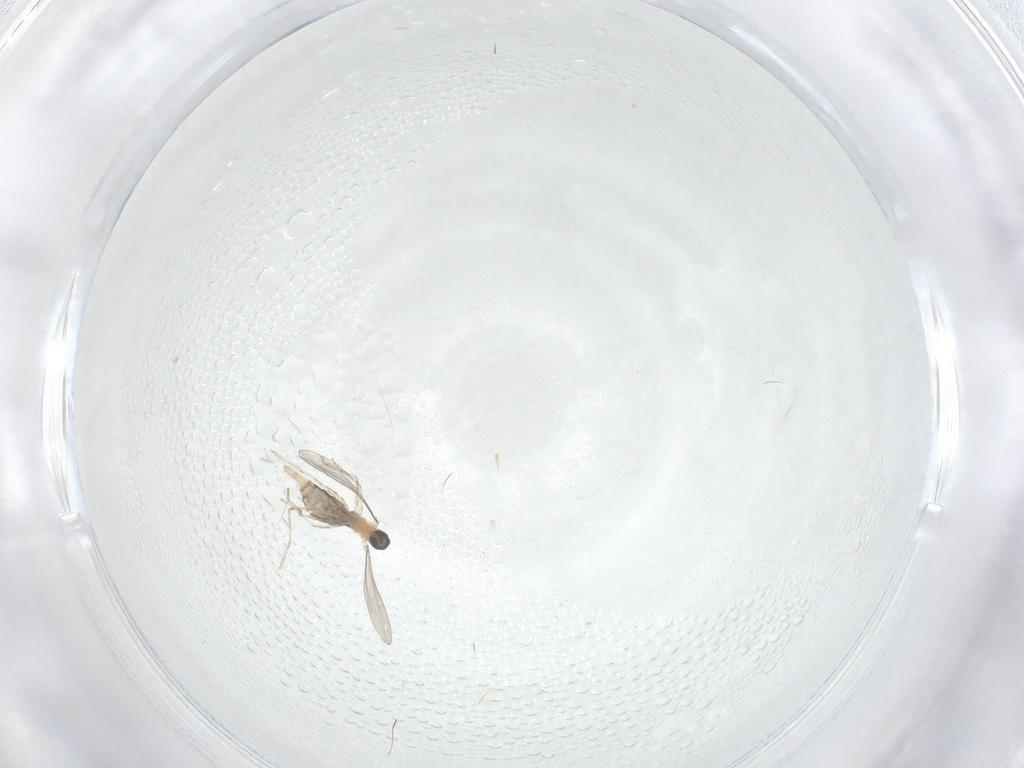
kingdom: Animalia
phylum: Arthropoda
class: Insecta
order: Diptera
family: Cecidomyiidae
